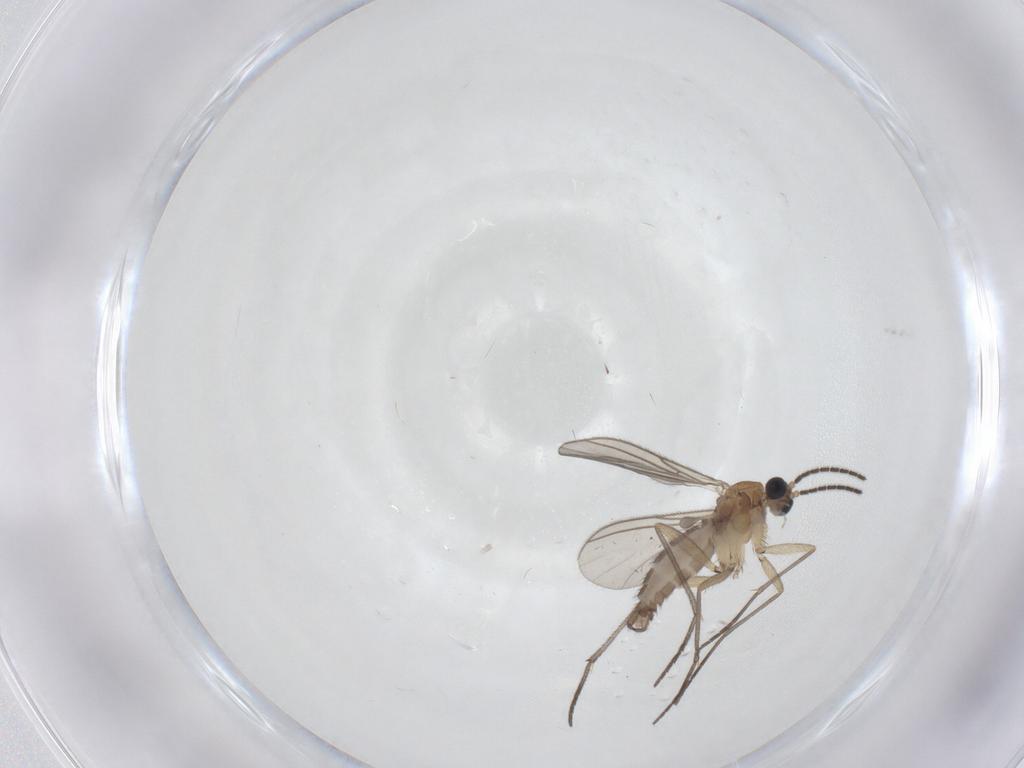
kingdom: Animalia
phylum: Arthropoda
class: Insecta
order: Diptera
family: Sciaridae
